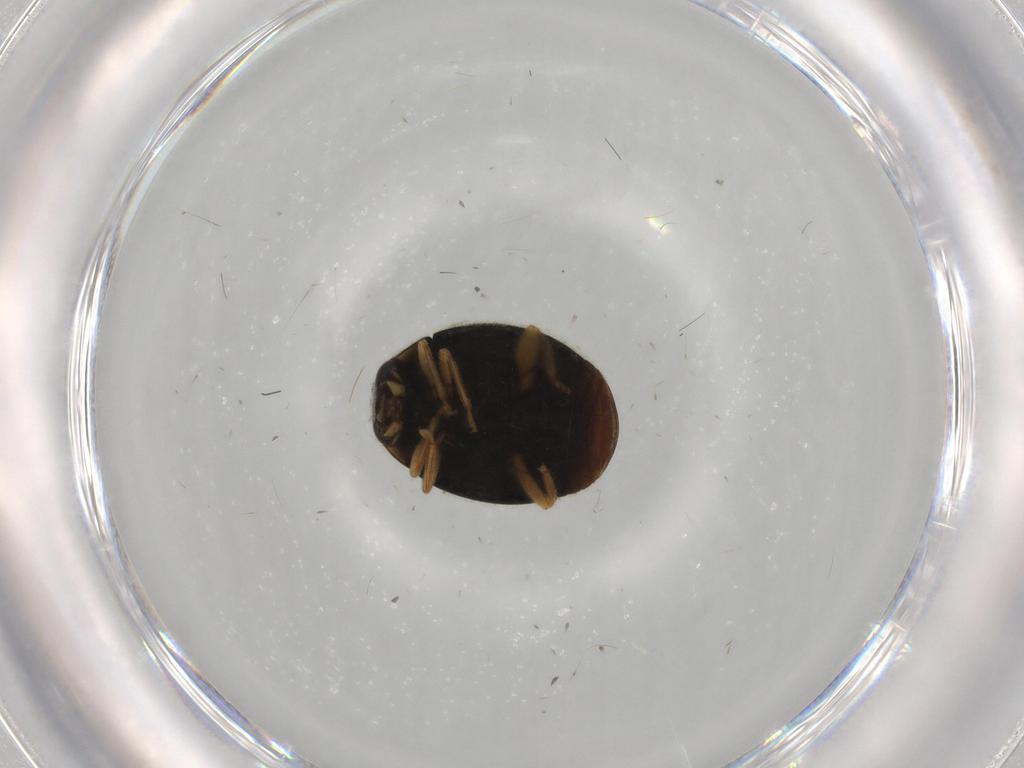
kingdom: Animalia
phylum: Arthropoda
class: Insecta
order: Coleoptera
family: Coccinellidae
